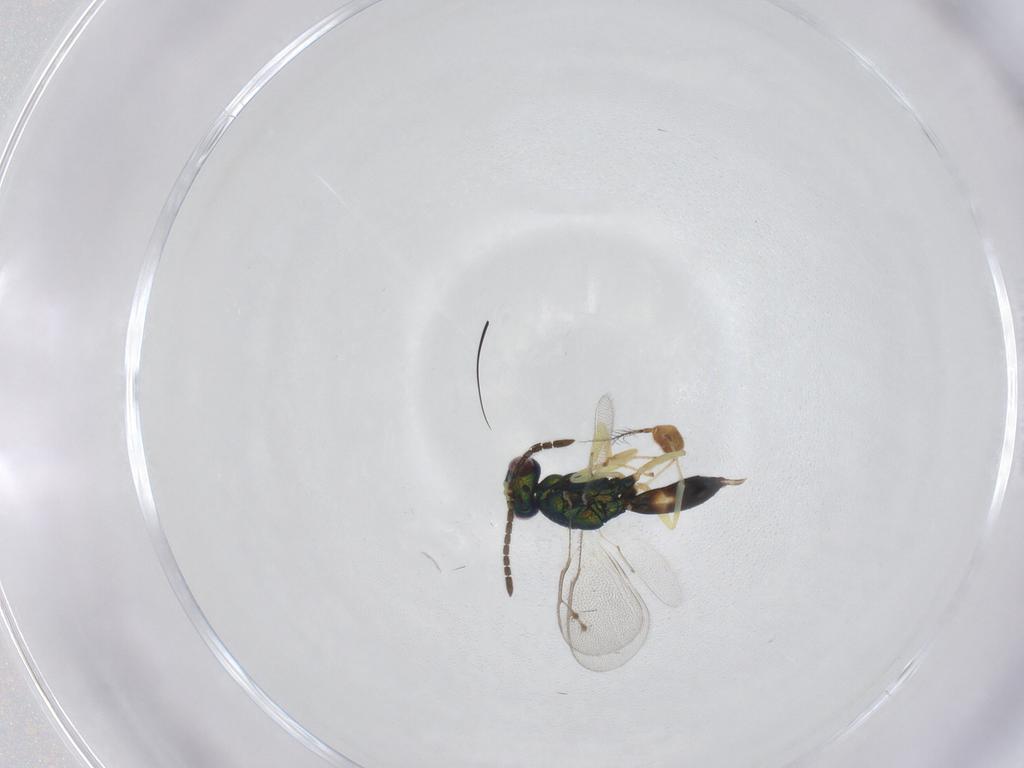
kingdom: Animalia
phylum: Arthropoda
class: Insecta
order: Hymenoptera
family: Pteromalidae
